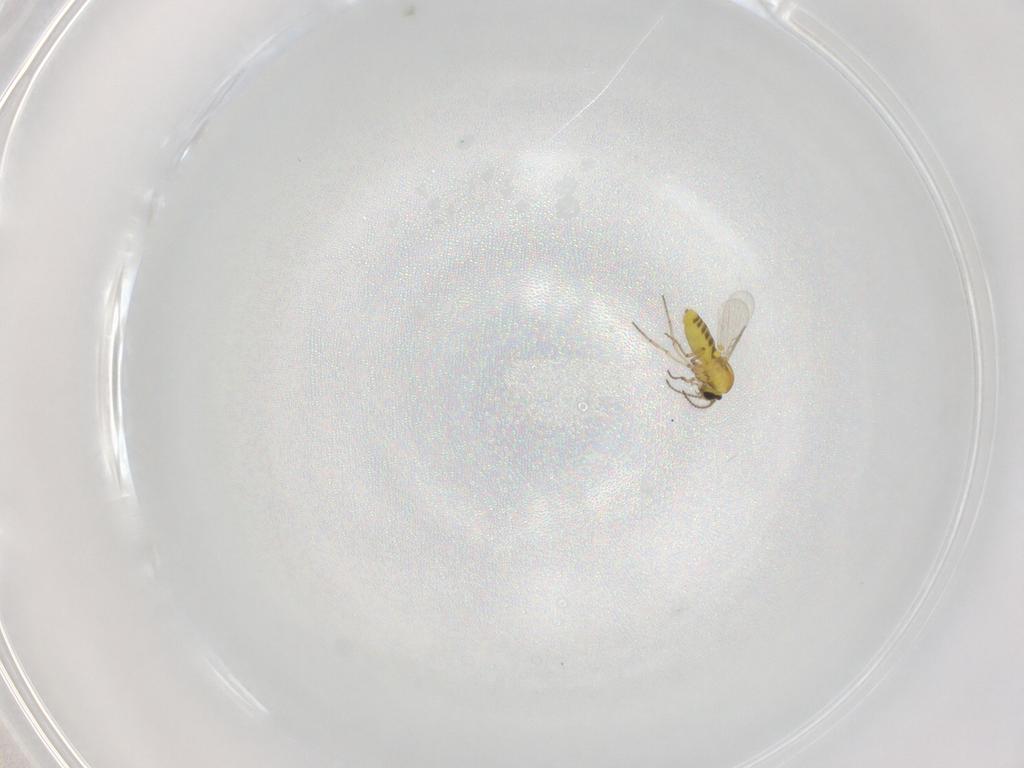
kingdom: Animalia
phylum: Arthropoda
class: Insecta
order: Diptera
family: Ceratopogonidae
